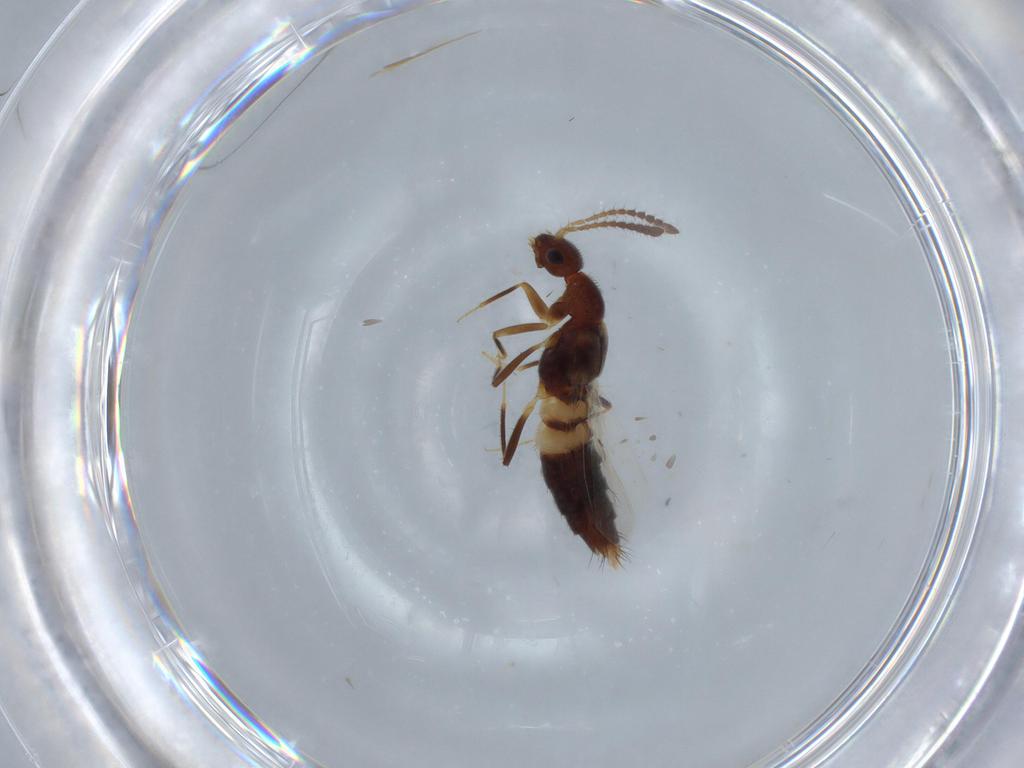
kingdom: Animalia
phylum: Arthropoda
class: Insecta
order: Coleoptera
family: Staphylinidae
